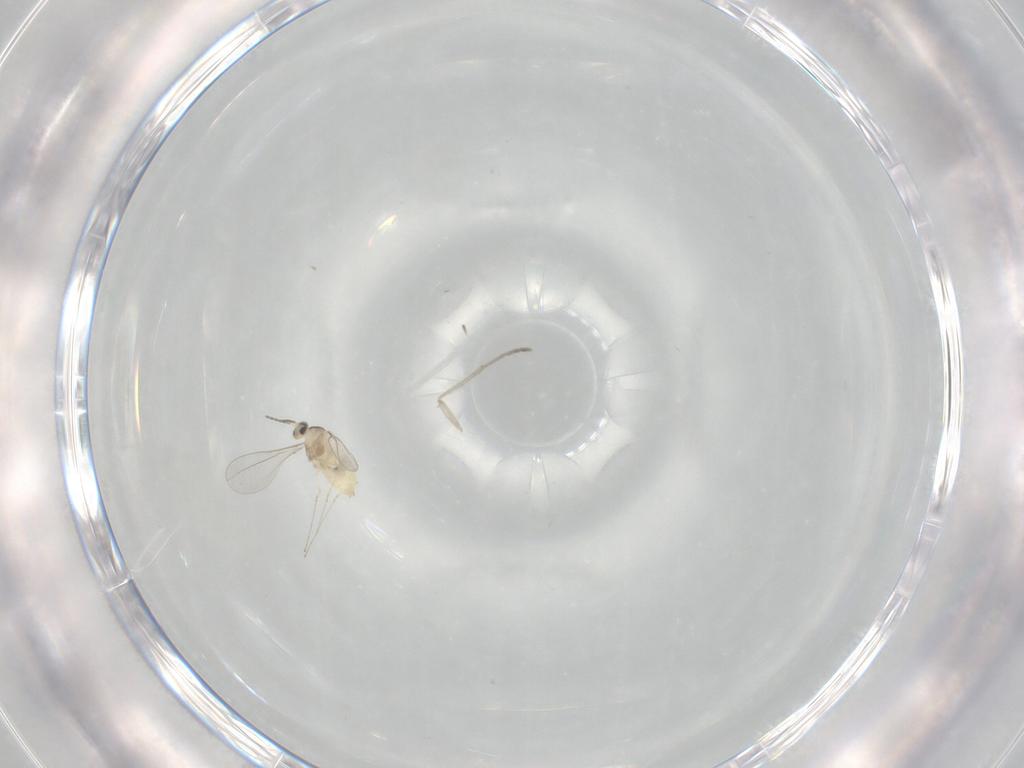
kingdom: Animalia
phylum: Arthropoda
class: Insecta
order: Diptera
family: Cecidomyiidae
